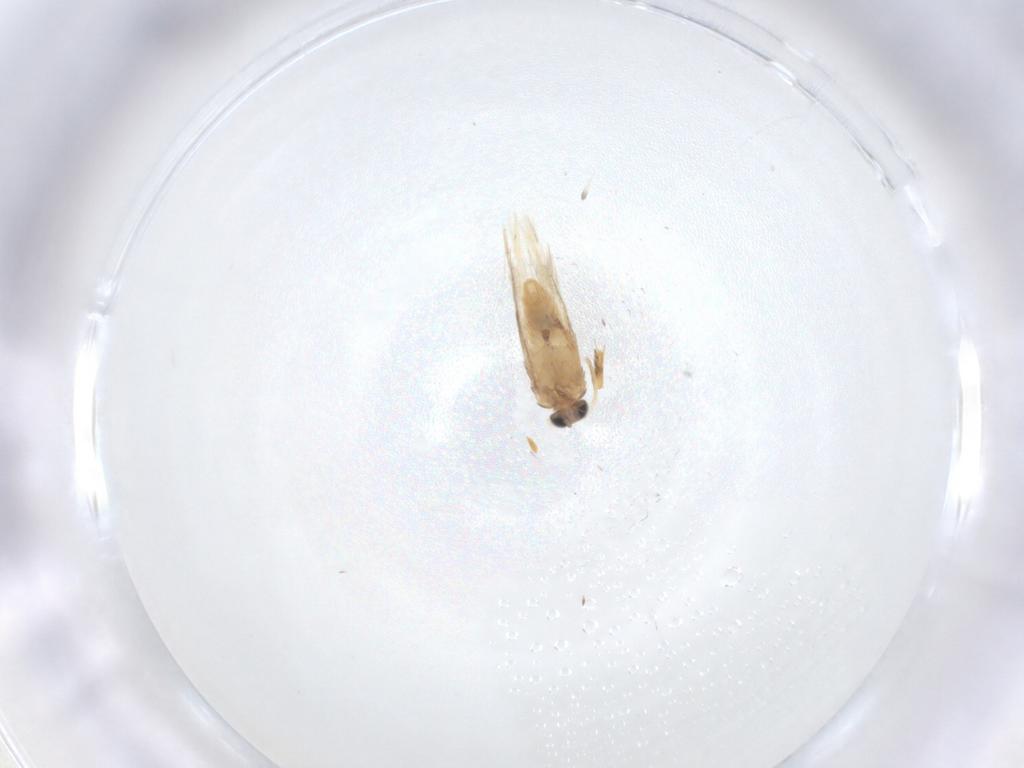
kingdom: Animalia
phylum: Arthropoda
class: Insecta
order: Lepidoptera
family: Nepticulidae
